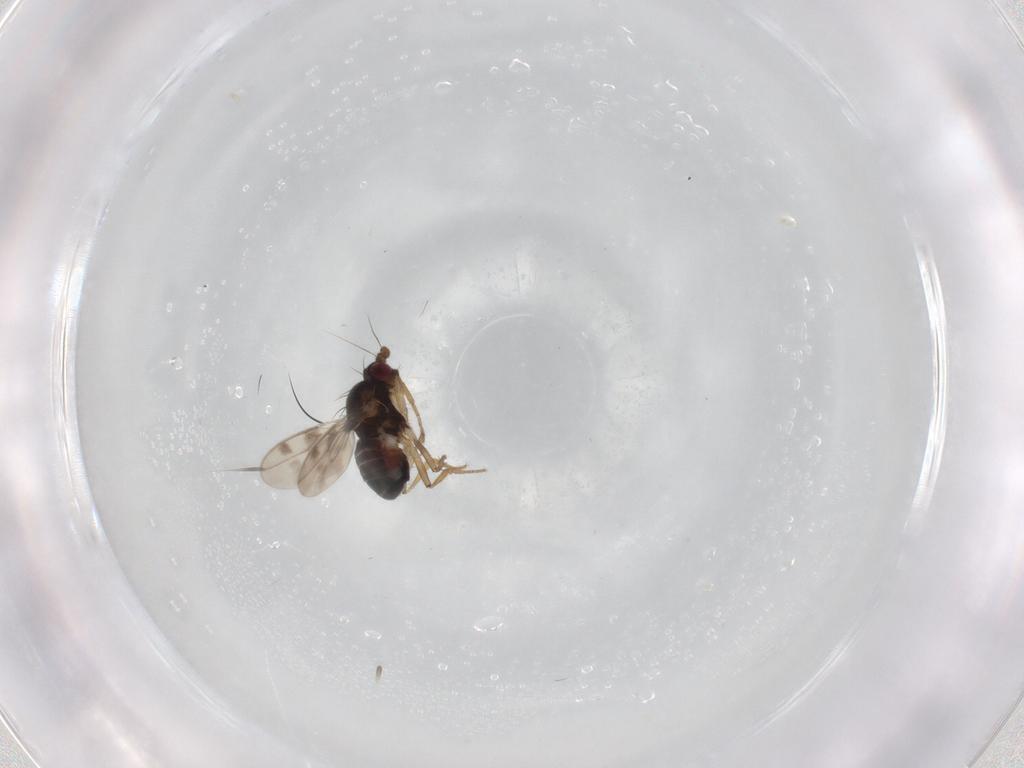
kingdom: Animalia
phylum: Arthropoda
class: Insecta
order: Diptera
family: Sphaeroceridae
